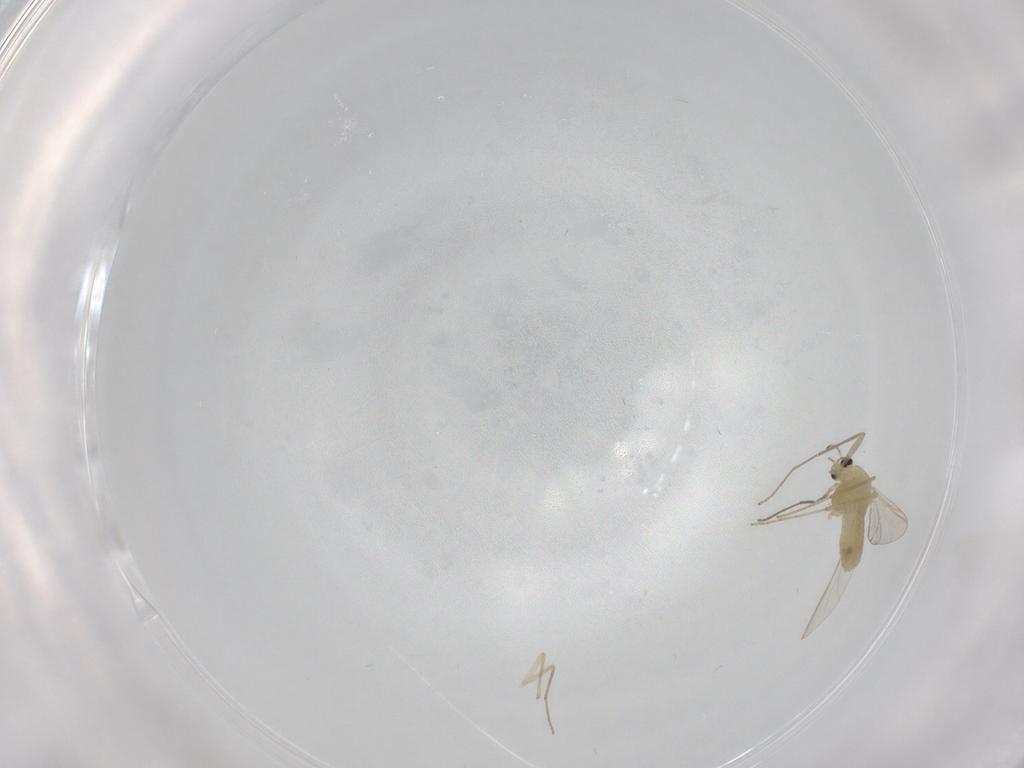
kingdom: Animalia
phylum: Arthropoda
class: Insecta
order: Diptera
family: Chironomidae
